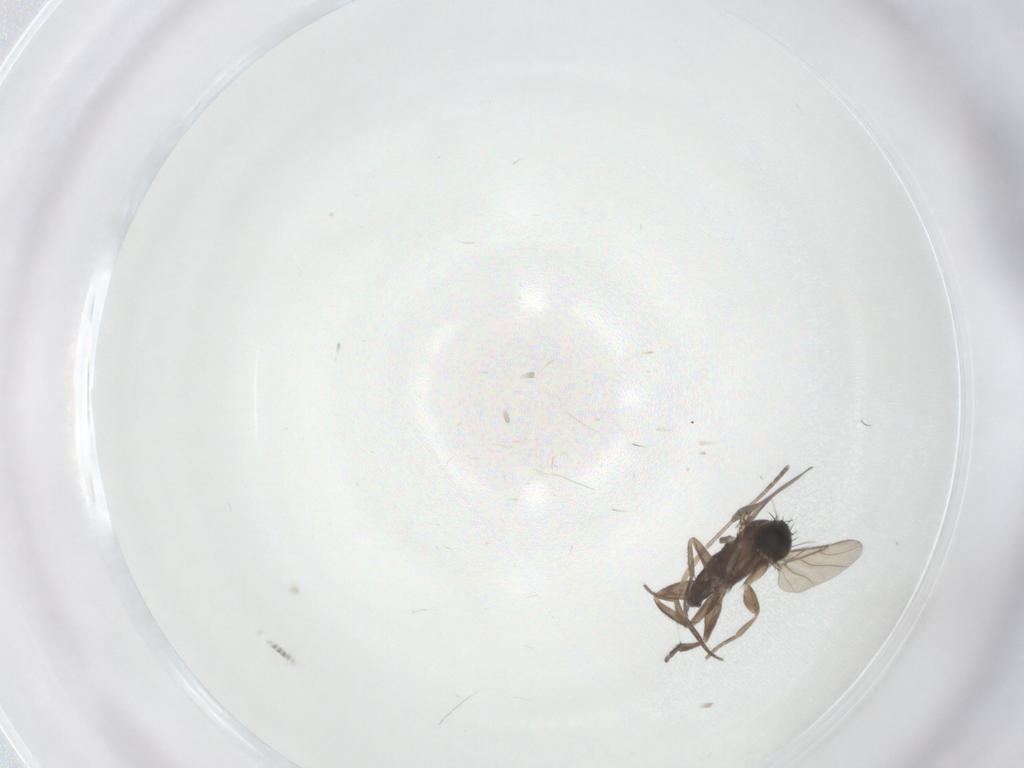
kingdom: Animalia
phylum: Arthropoda
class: Insecta
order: Diptera
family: Phoridae
